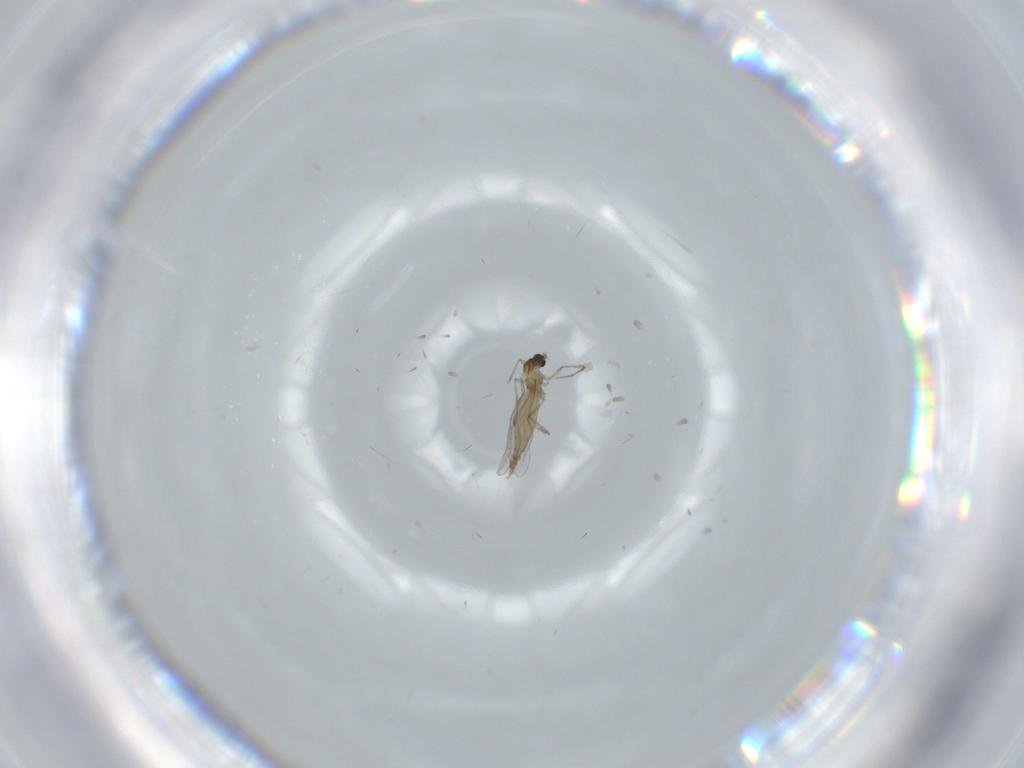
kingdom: Animalia
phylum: Arthropoda
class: Insecta
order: Diptera
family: Cecidomyiidae
